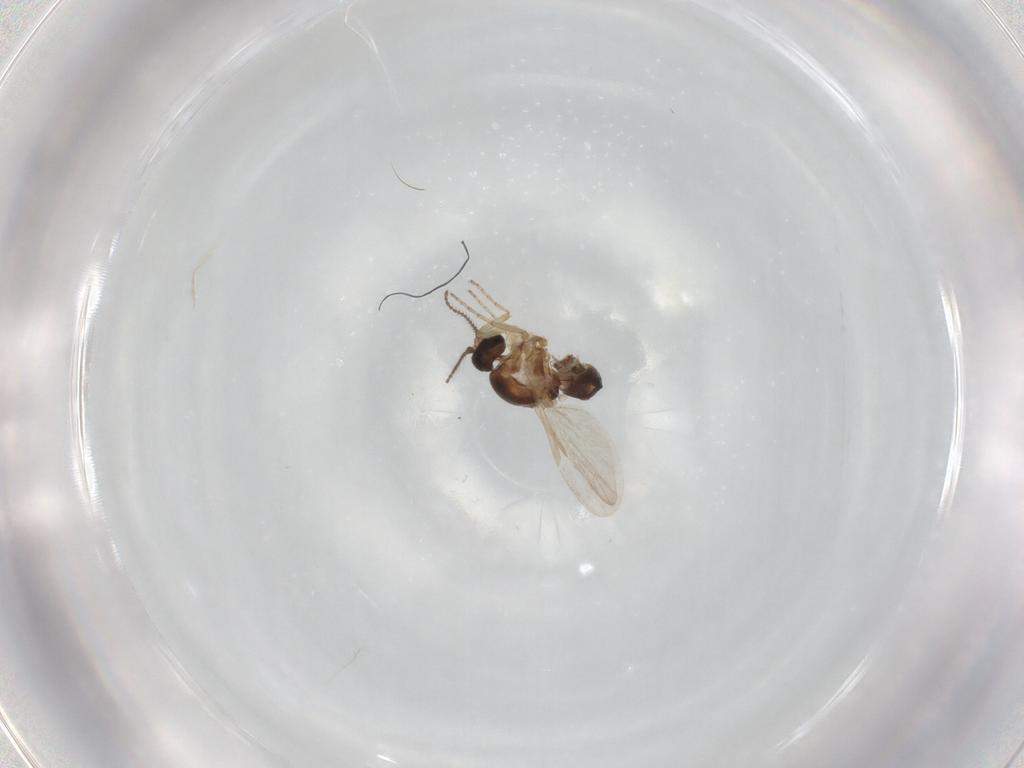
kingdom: Animalia
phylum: Arthropoda
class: Insecta
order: Diptera
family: Ceratopogonidae
